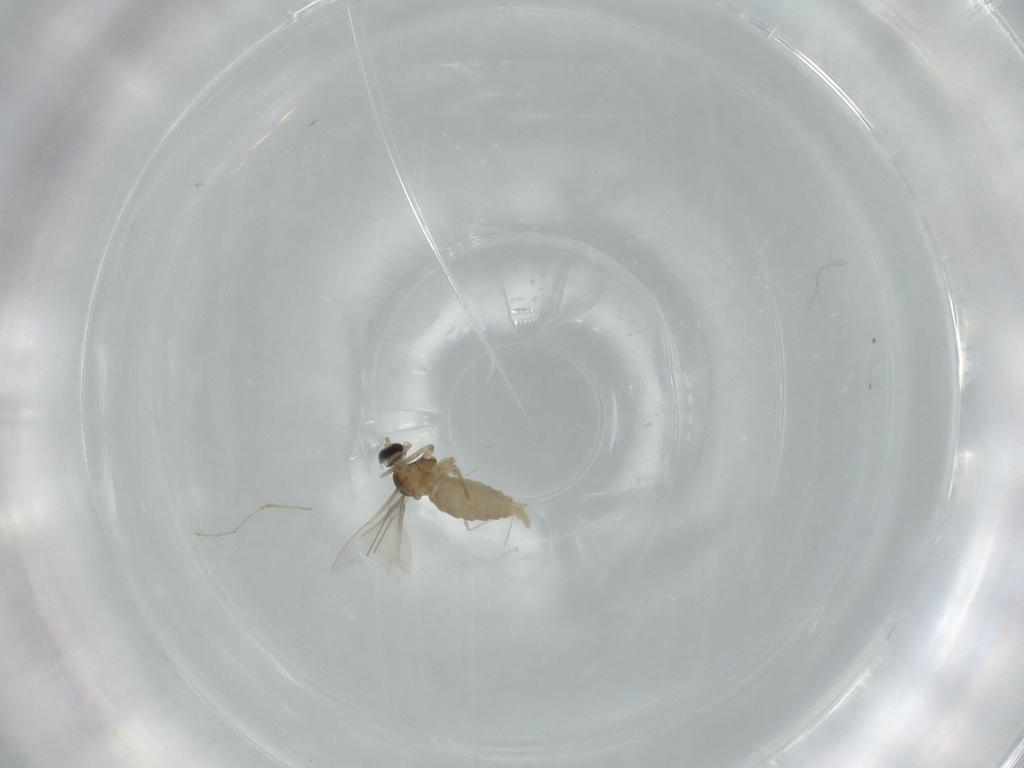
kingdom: Animalia
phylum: Arthropoda
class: Insecta
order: Diptera
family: Cecidomyiidae
